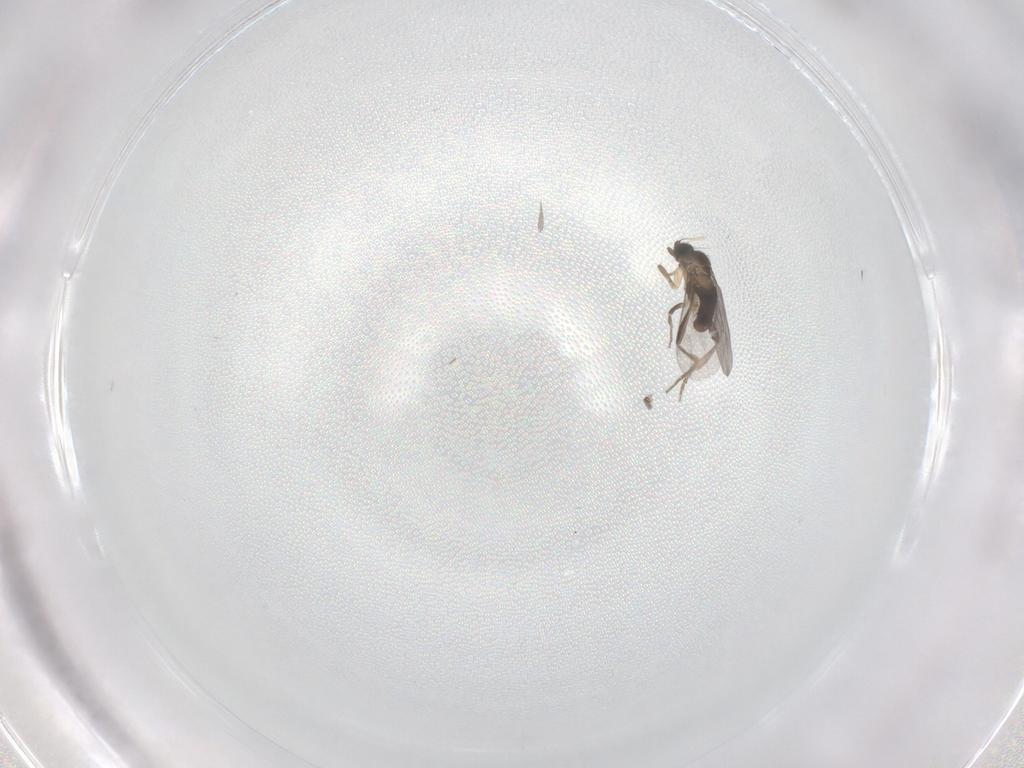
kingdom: Animalia
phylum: Arthropoda
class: Insecta
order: Diptera
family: Cecidomyiidae
